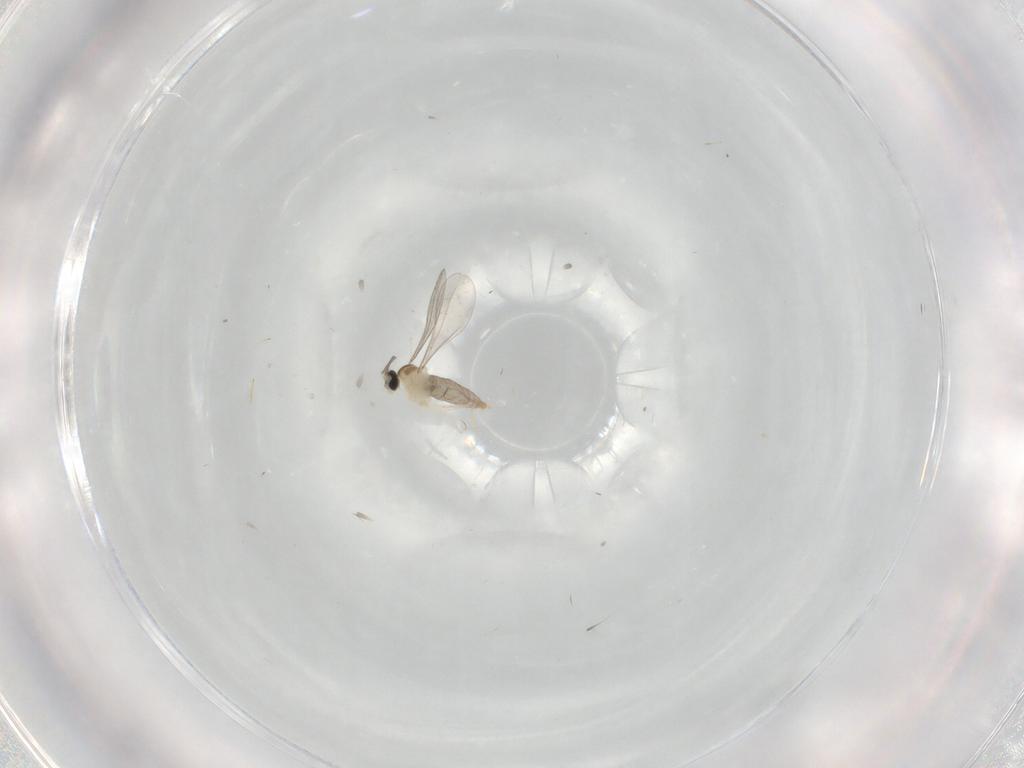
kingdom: Animalia
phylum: Arthropoda
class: Insecta
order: Diptera
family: Cecidomyiidae
